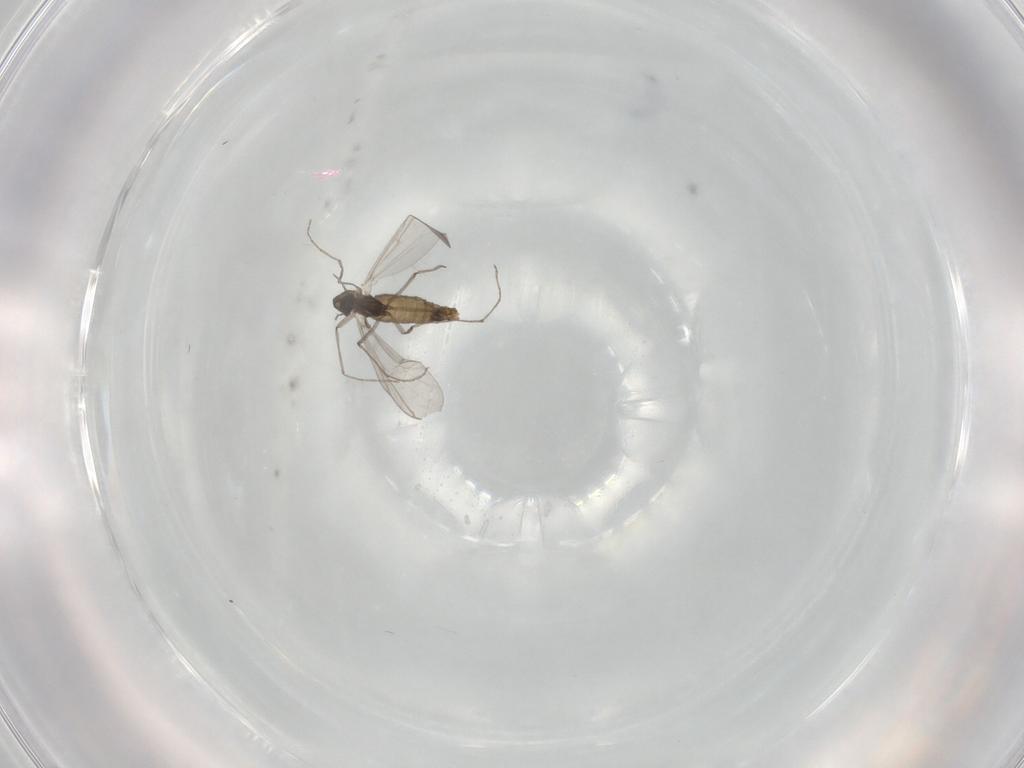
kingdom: Animalia
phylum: Arthropoda
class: Insecta
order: Diptera
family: Chironomidae
